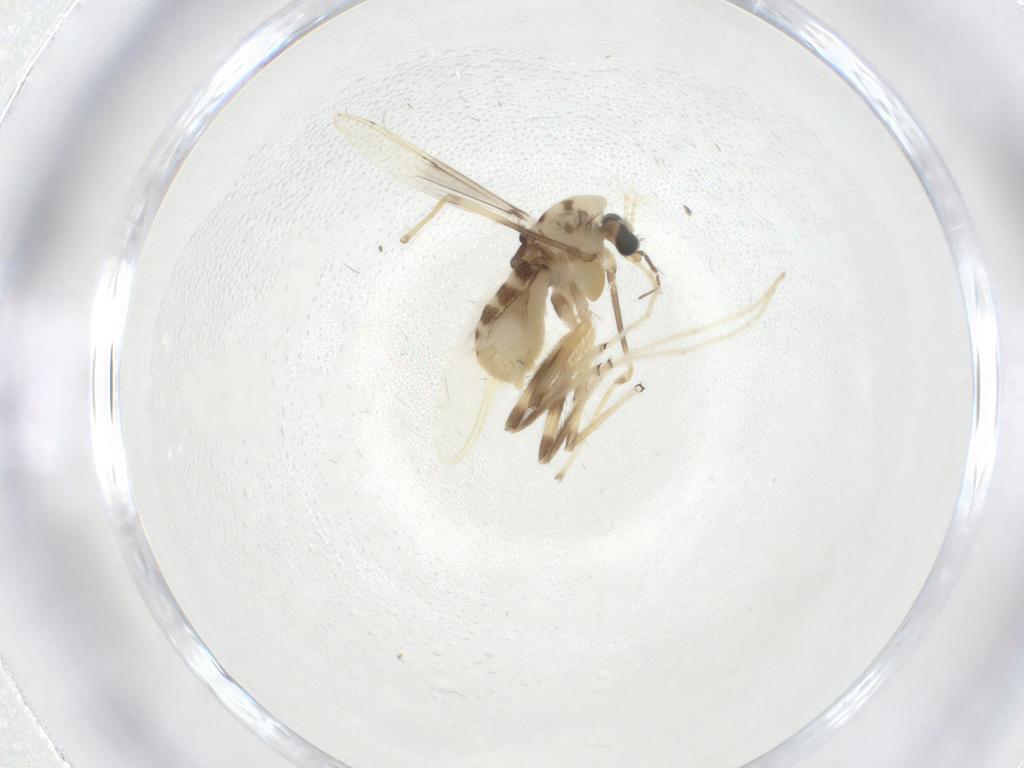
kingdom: Animalia
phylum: Arthropoda
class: Insecta
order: Diptera
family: Chironomidae
